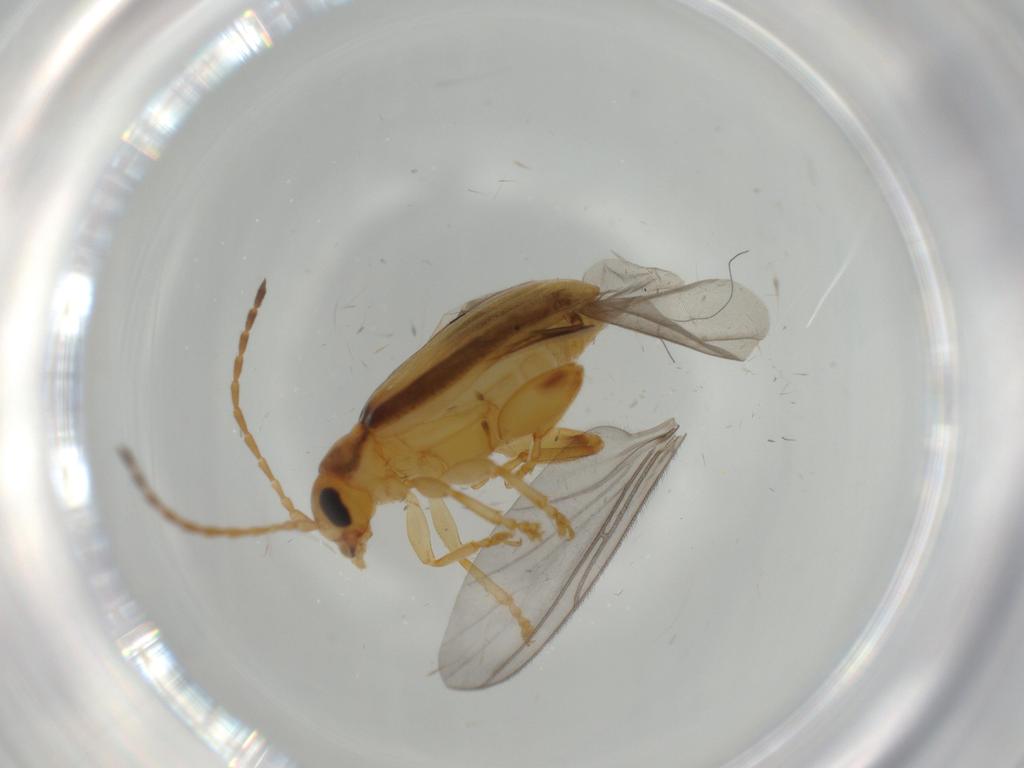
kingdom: Animalia
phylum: Arthropoda
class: Insecta
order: Coleoptera
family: Chrysomelidae
